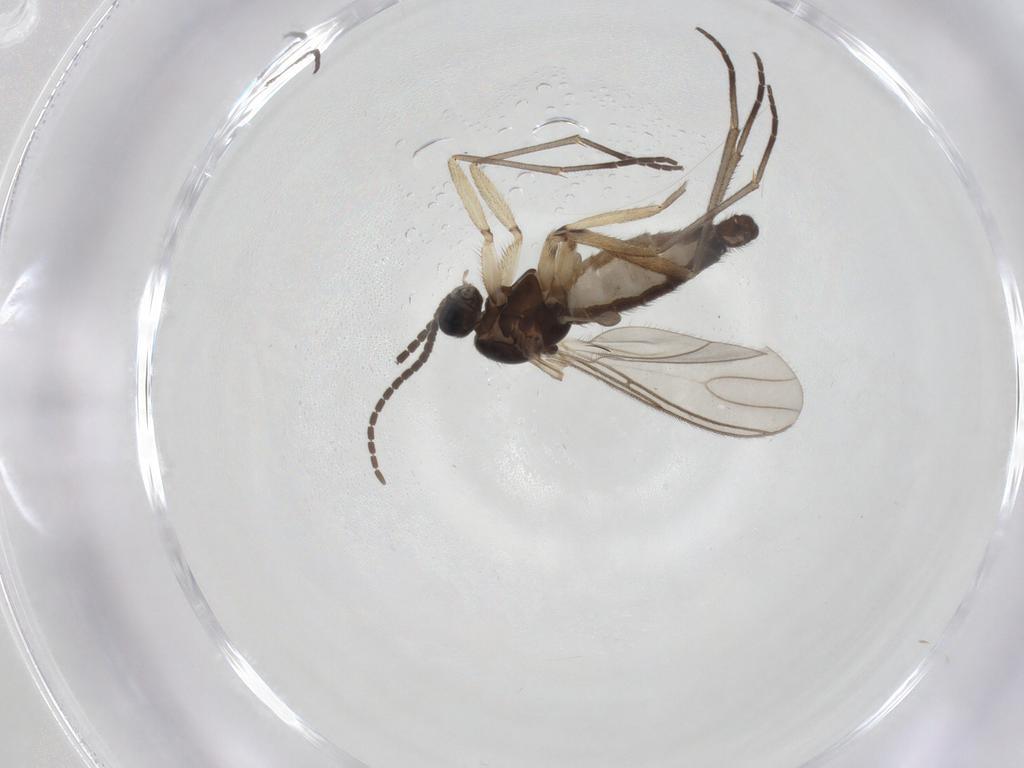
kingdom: Animalia
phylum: Arthropoda
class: Insecta
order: Diptera
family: Sciaridae
